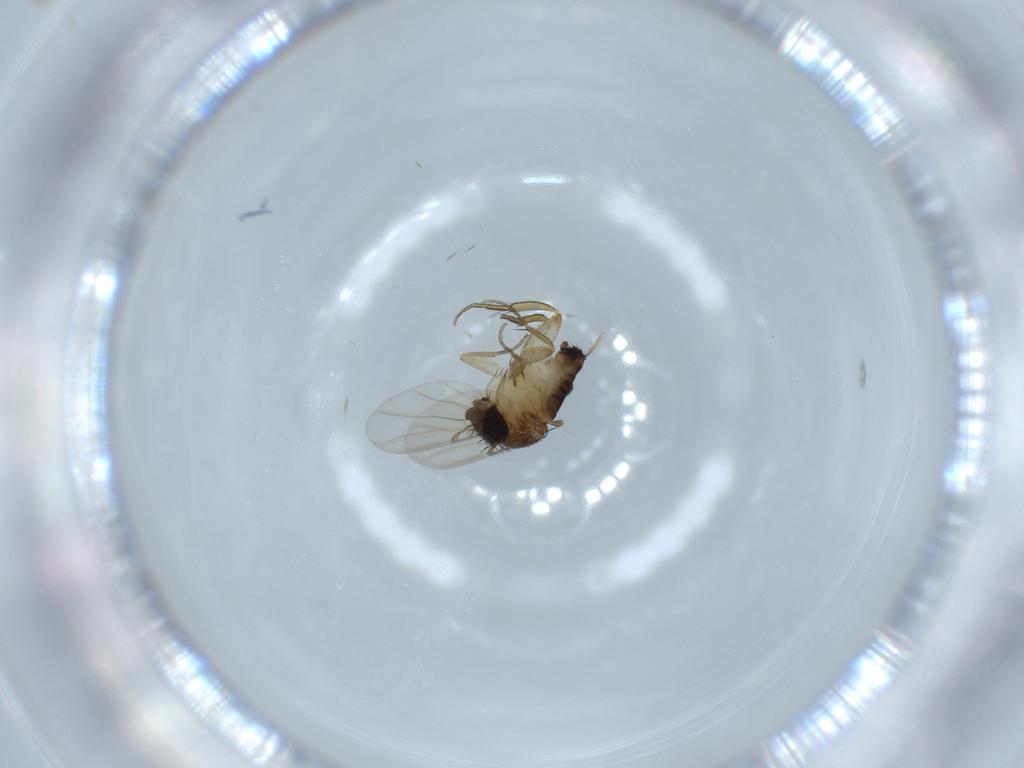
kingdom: Animalia
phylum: Arthropoda
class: Insecta
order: Diptera
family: Phoridae
